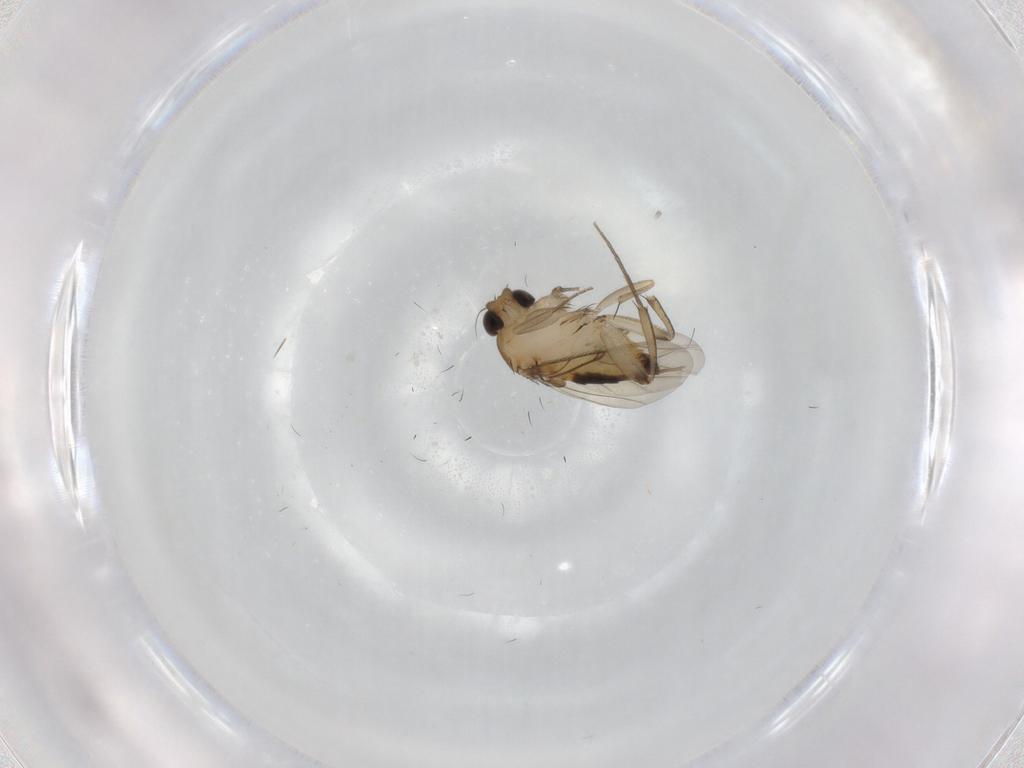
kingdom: Animalia
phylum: Arthropoda
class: Insecta
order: Diptera
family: Phoridae
